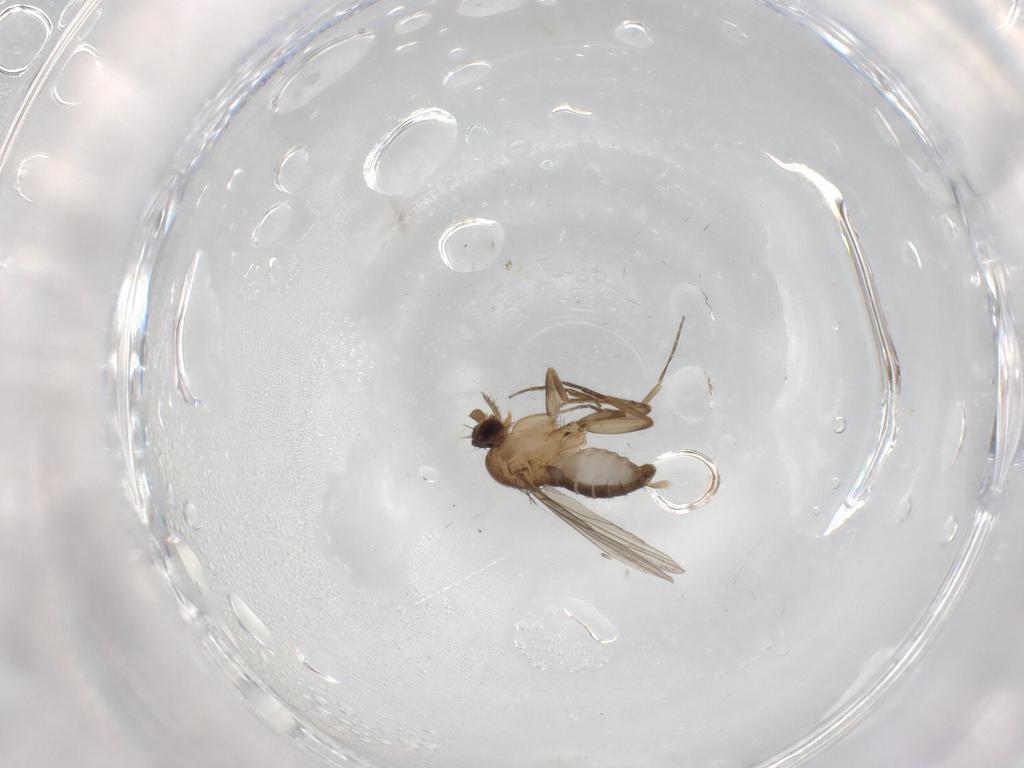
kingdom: Animalia
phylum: Arthropoda
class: Insecta
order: Diptera
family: Phoridae
